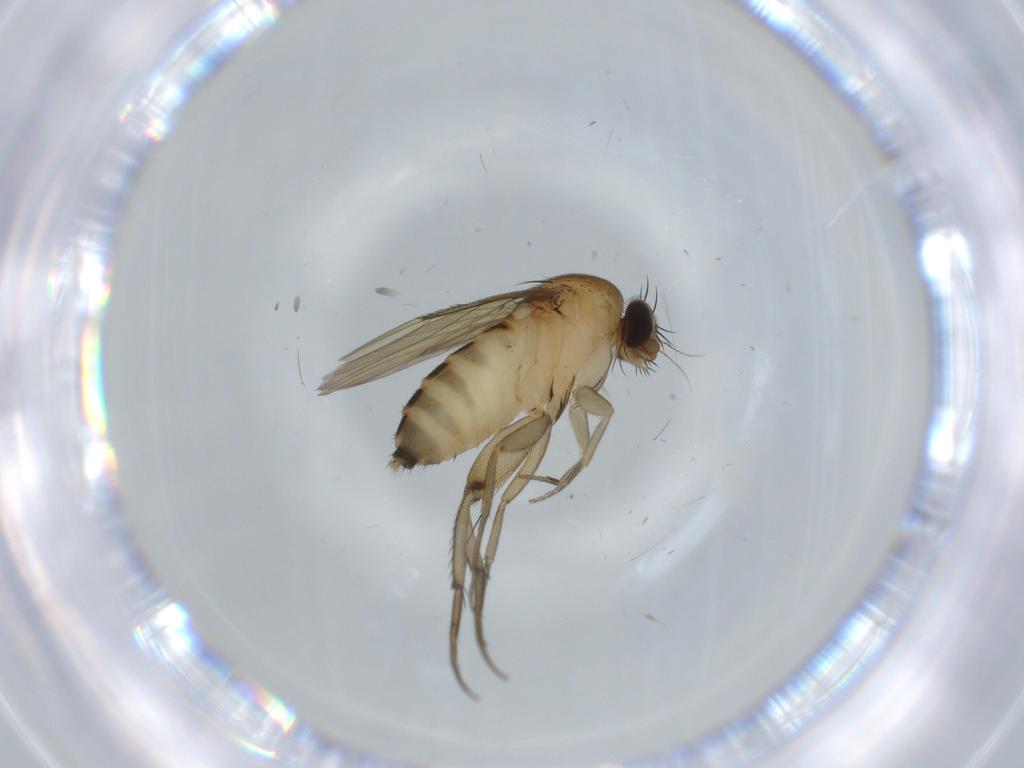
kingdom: Animalia
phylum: Arthropoda
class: Insecta
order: Diptera
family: Phoridae
